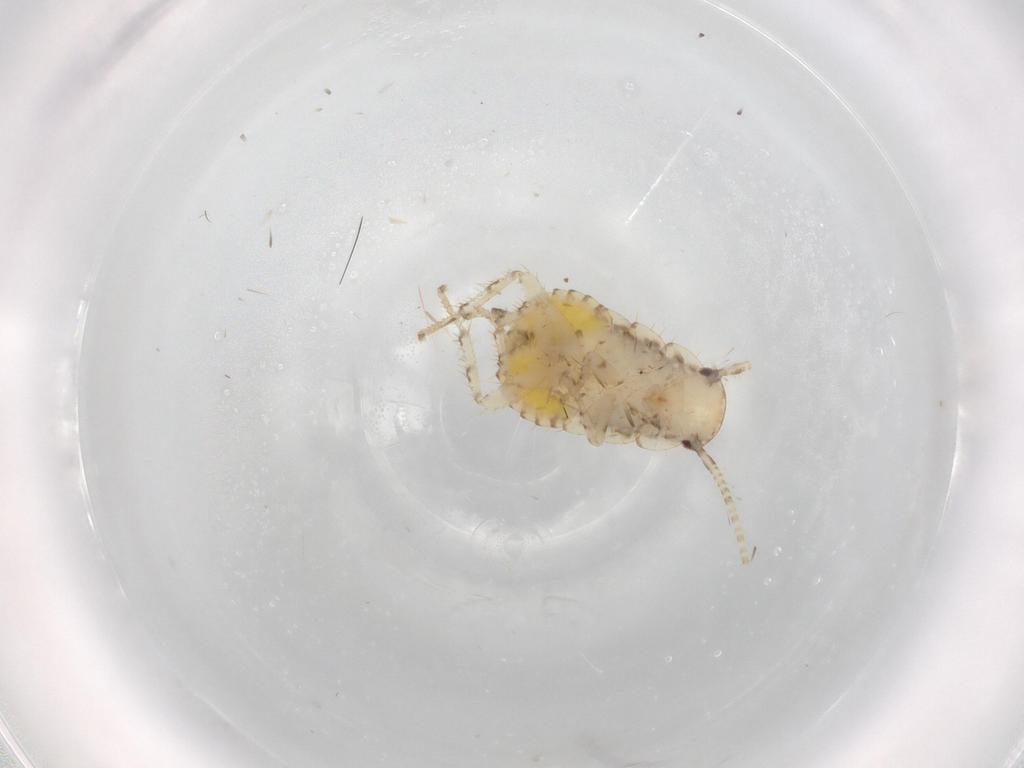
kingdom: Animalia
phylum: Arthropoda
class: Insecta
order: Blattodea
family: Ectobiidae
